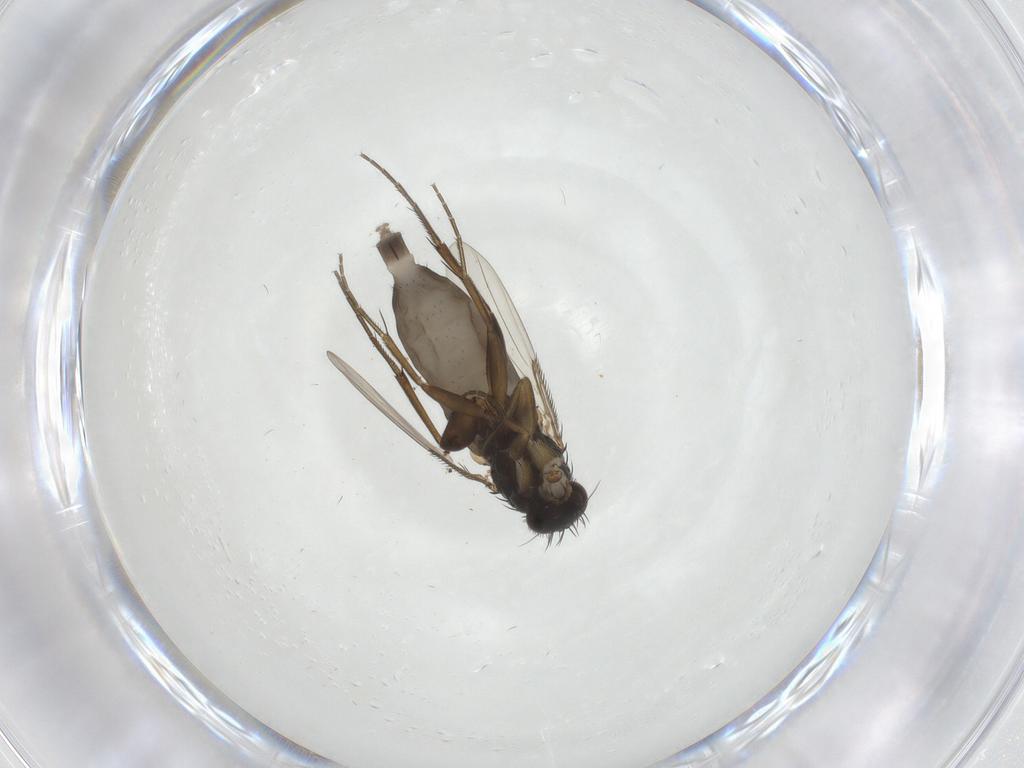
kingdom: Animalia
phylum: Arthropoda
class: Insecta
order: Diptera
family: Phoridae
